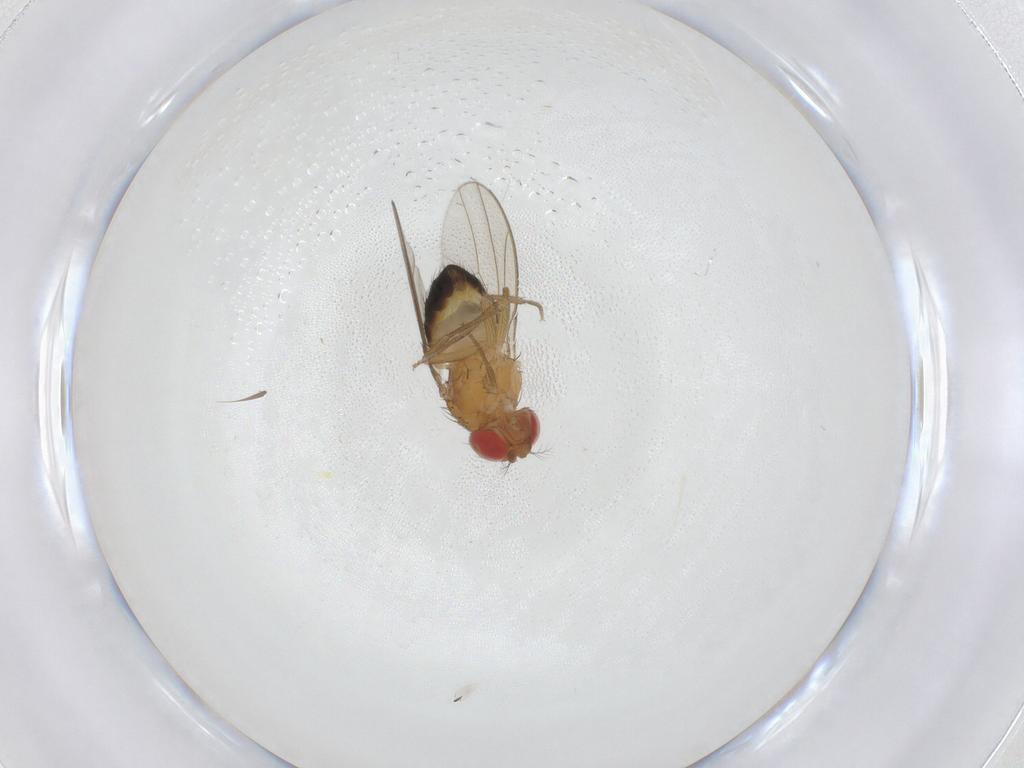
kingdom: Animalia
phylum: Arthropoda
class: Insecta
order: Diptera
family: Drosophilidae
